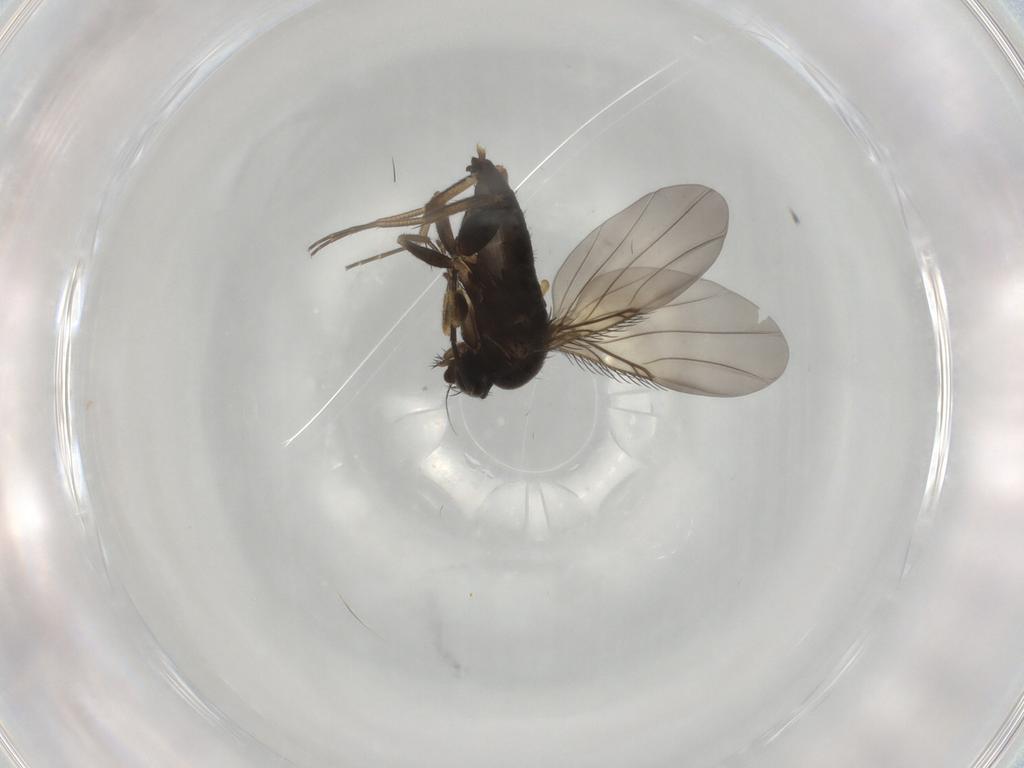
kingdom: Animalia
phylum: Arthropoda
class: Insecta
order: Diptera
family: Phoridae
